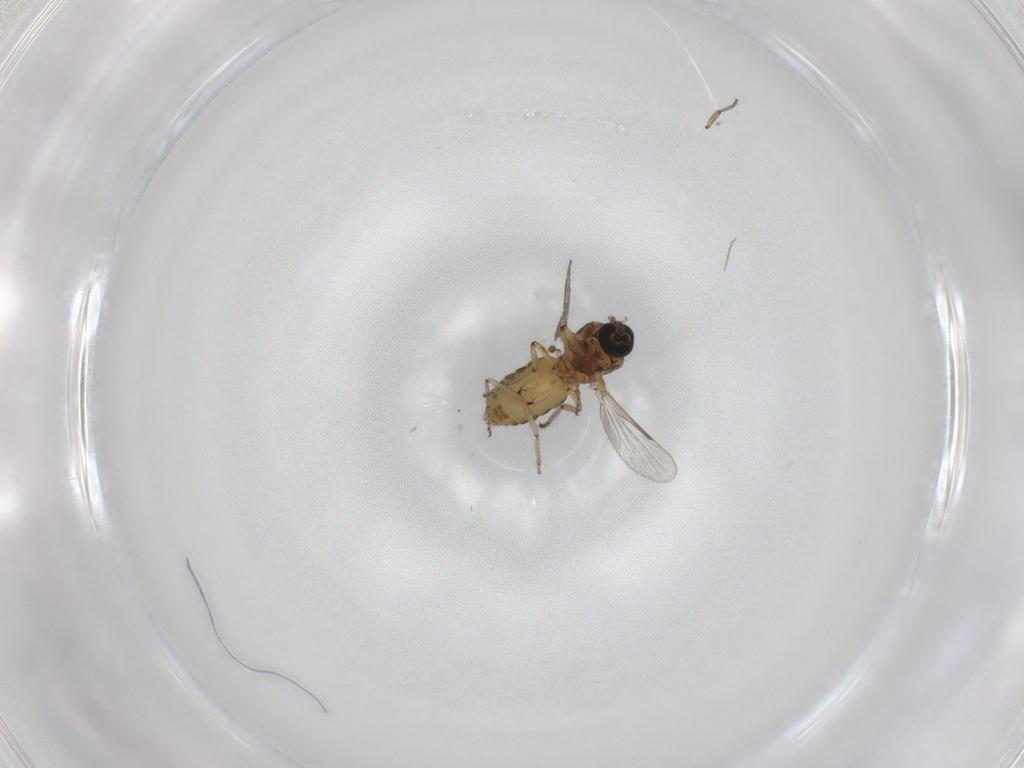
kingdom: Animalia
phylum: Arthropoda
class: Insecta
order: Diptera
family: Ceratopogonidae
